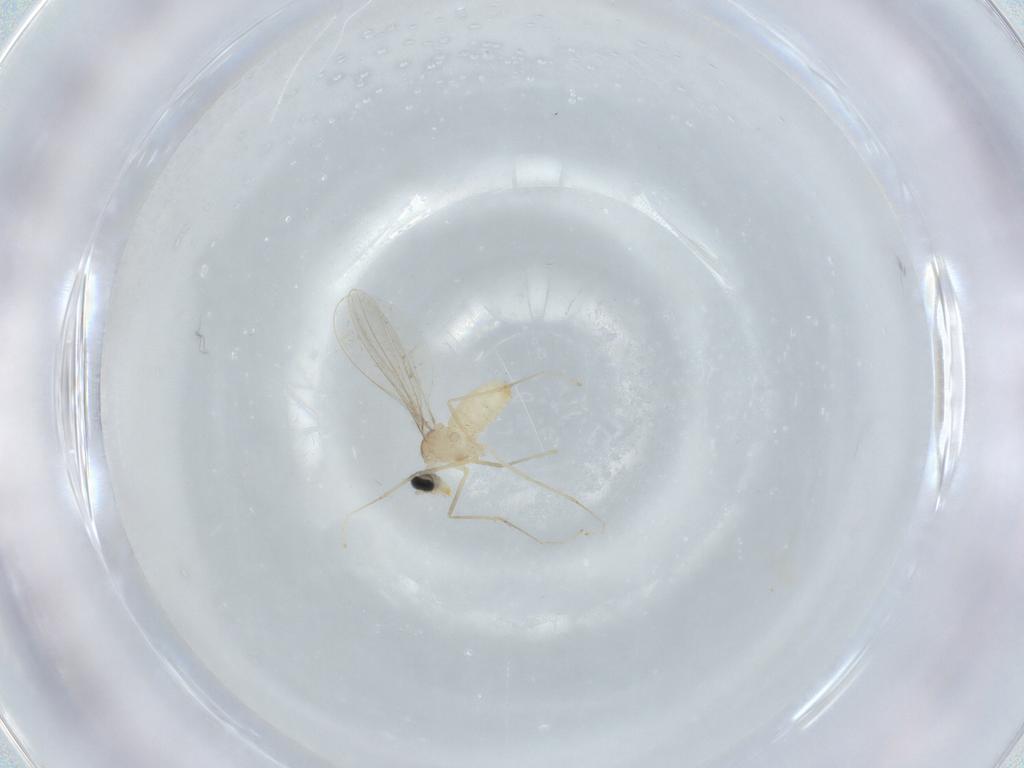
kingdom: Animalia
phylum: Arthropoda
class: Insecta
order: Diptera
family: Cecidomyiidae
